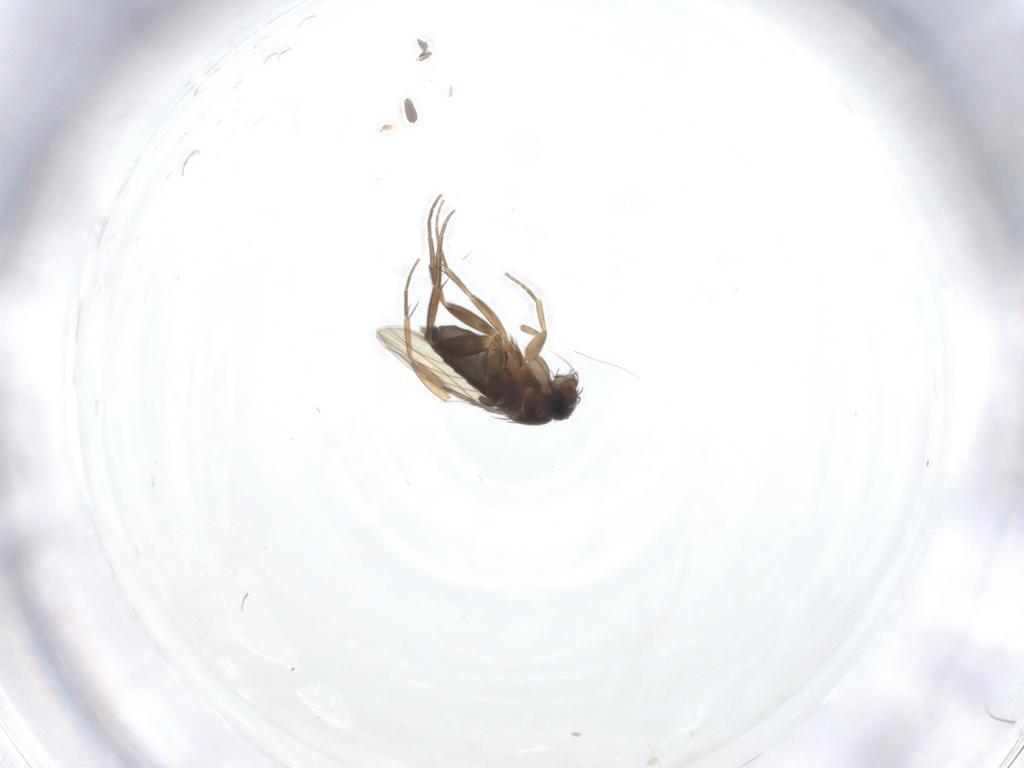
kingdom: Animalia
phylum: Arthropoda
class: Insecta
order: Diptera
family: Phoridae
